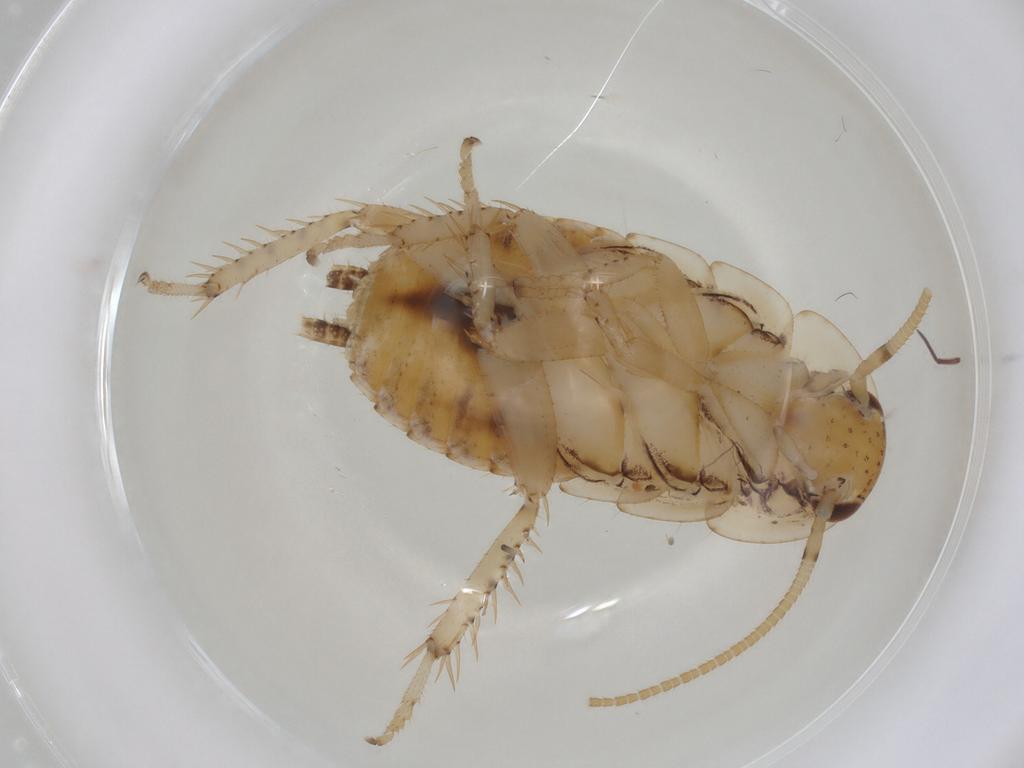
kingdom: Animalia
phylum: Arthropoda
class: Insecta
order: Blattodea
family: Blaberidae
